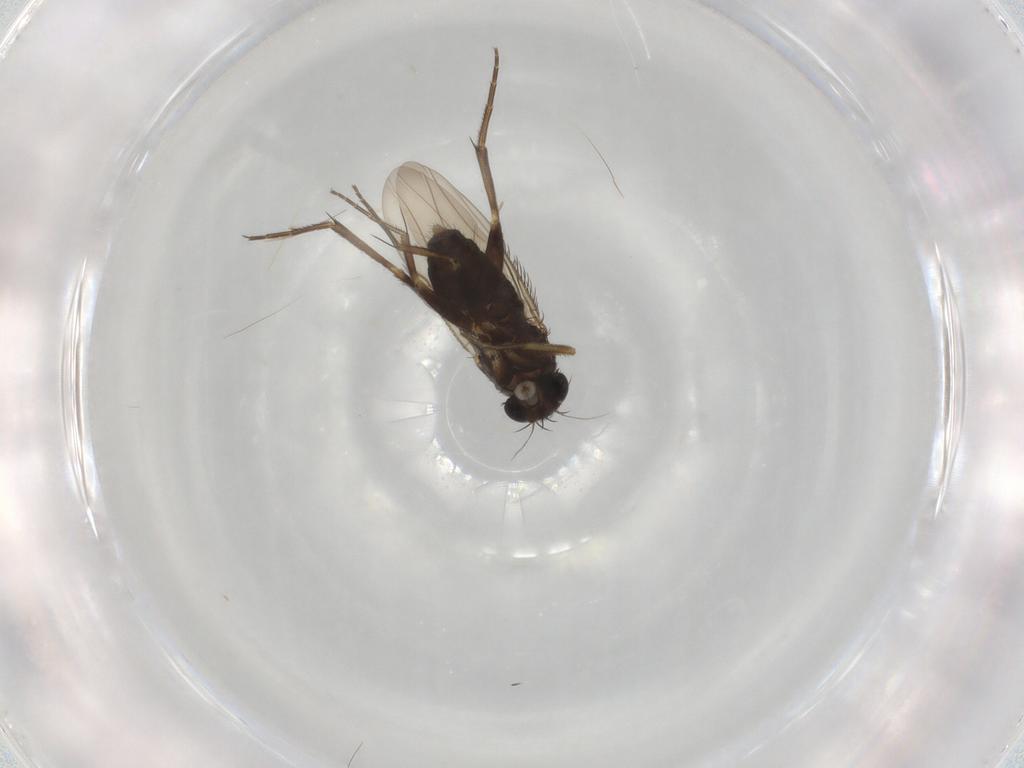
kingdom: Animalia
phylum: Arthropoda
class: Insecta
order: Diptera
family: Phoridae
